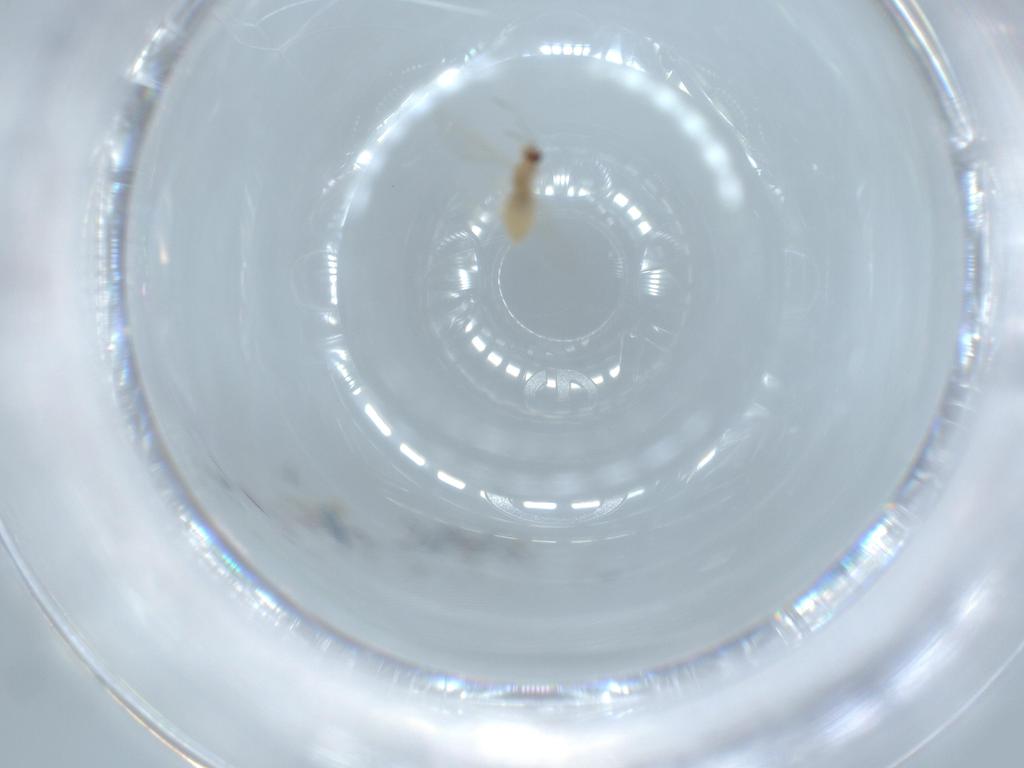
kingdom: Animalia
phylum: Arthropoda
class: Insecta
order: Diptera
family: Cecidomyiidae
